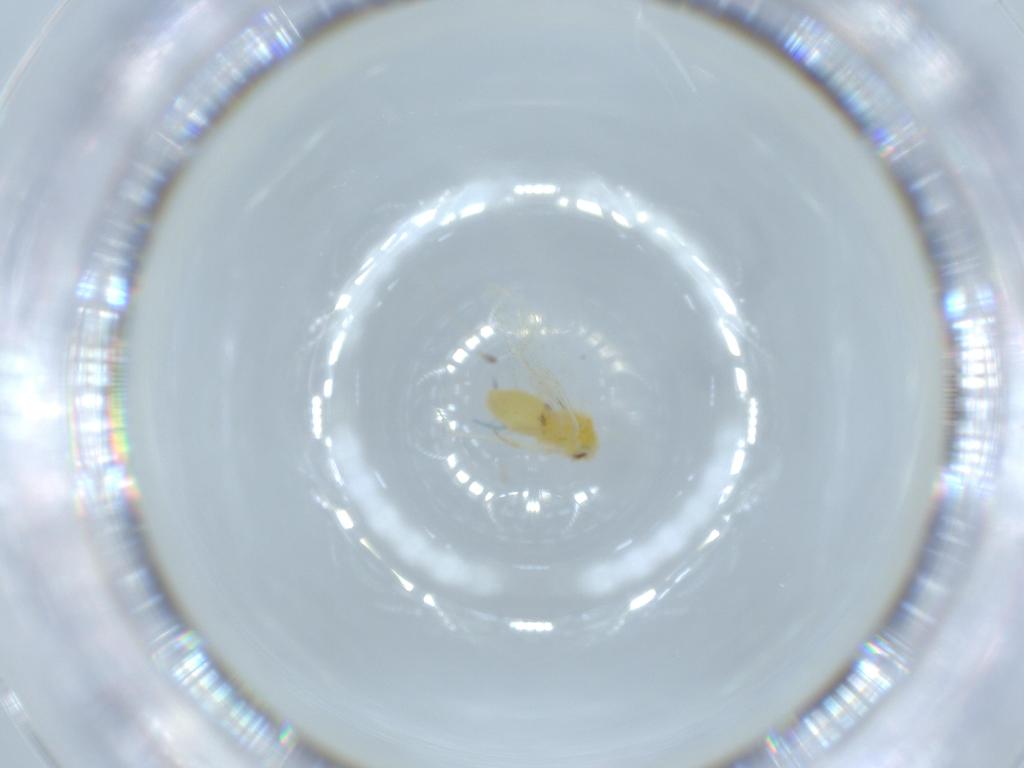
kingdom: Animalia
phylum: Arthropoda
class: Insecta
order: Hemiptera
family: Aleyrodidae
